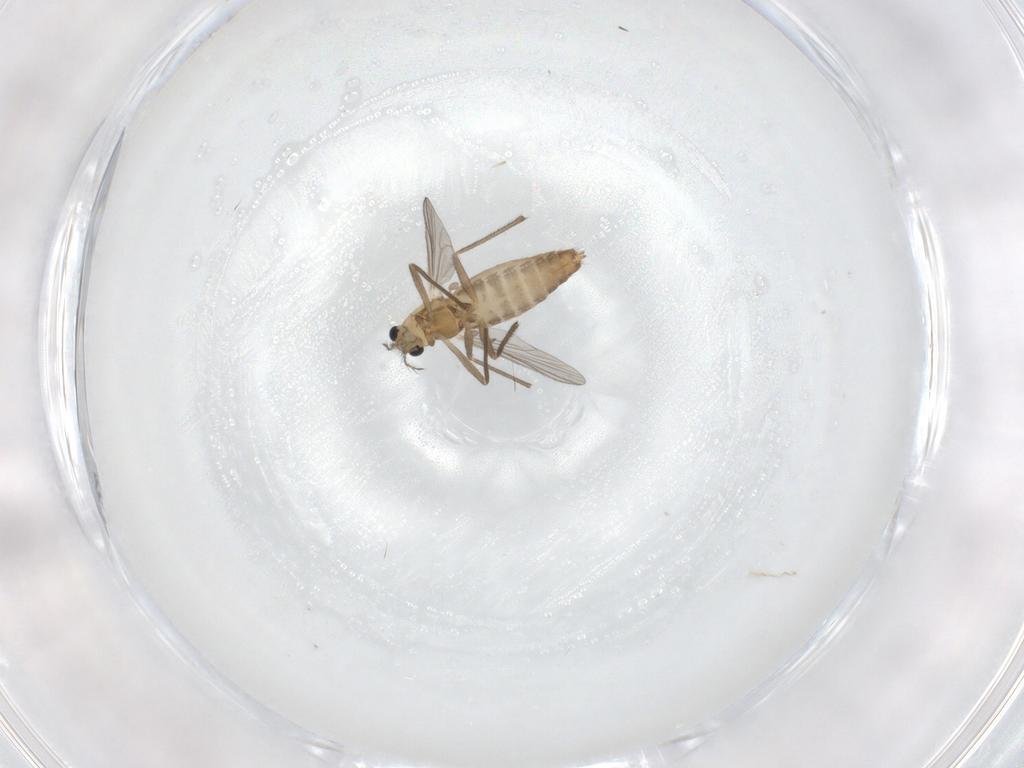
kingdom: Animalia
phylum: Arthropoda
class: Insecta
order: Diptera
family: Chironomidae
